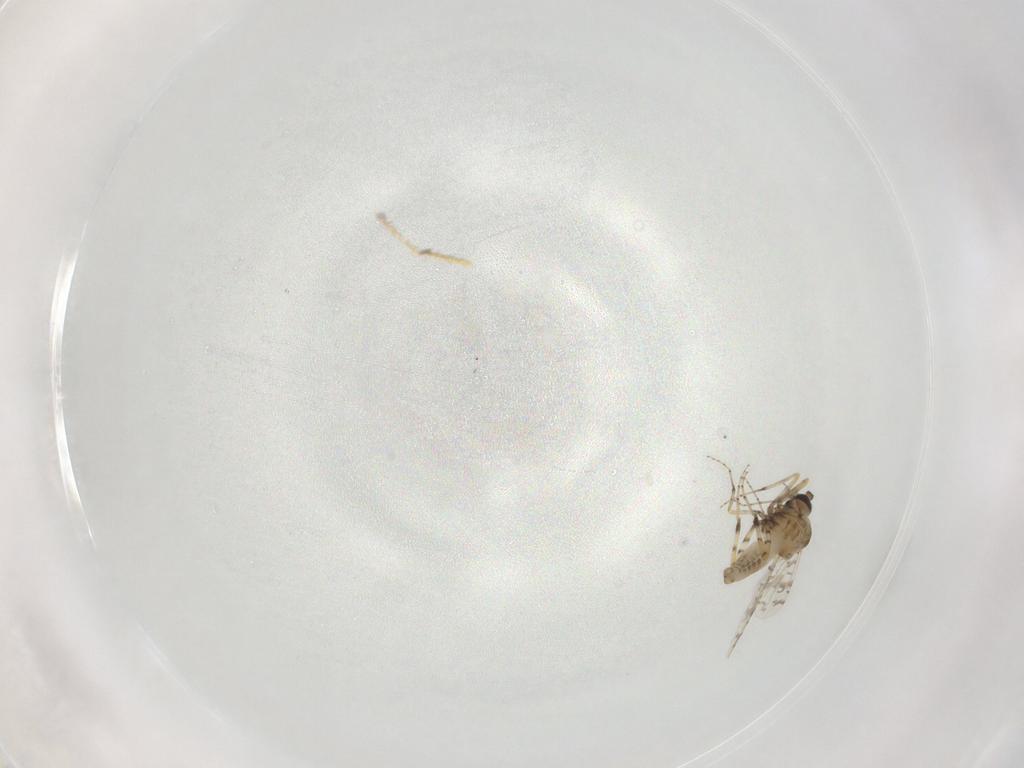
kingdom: Animalia
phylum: Arthropoda
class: Insecta
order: Diptera
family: Ceratopogonidae
